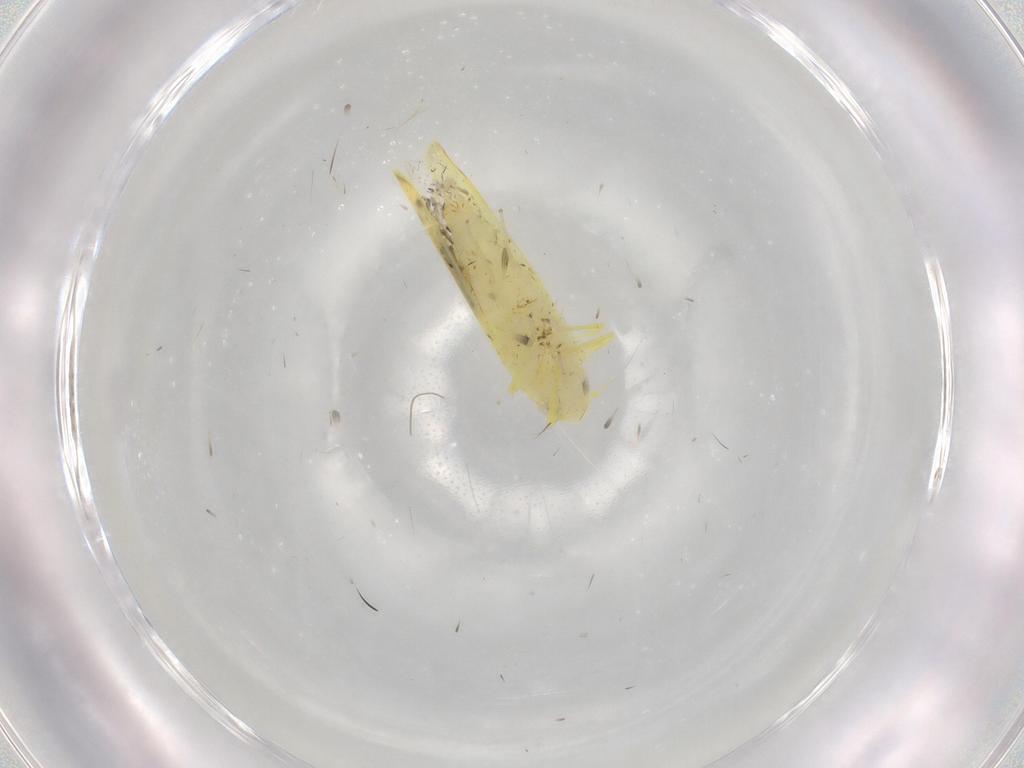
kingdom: Animalia
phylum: Arthropoda
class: Insecta
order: Hemiptera
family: Cicadellidae
